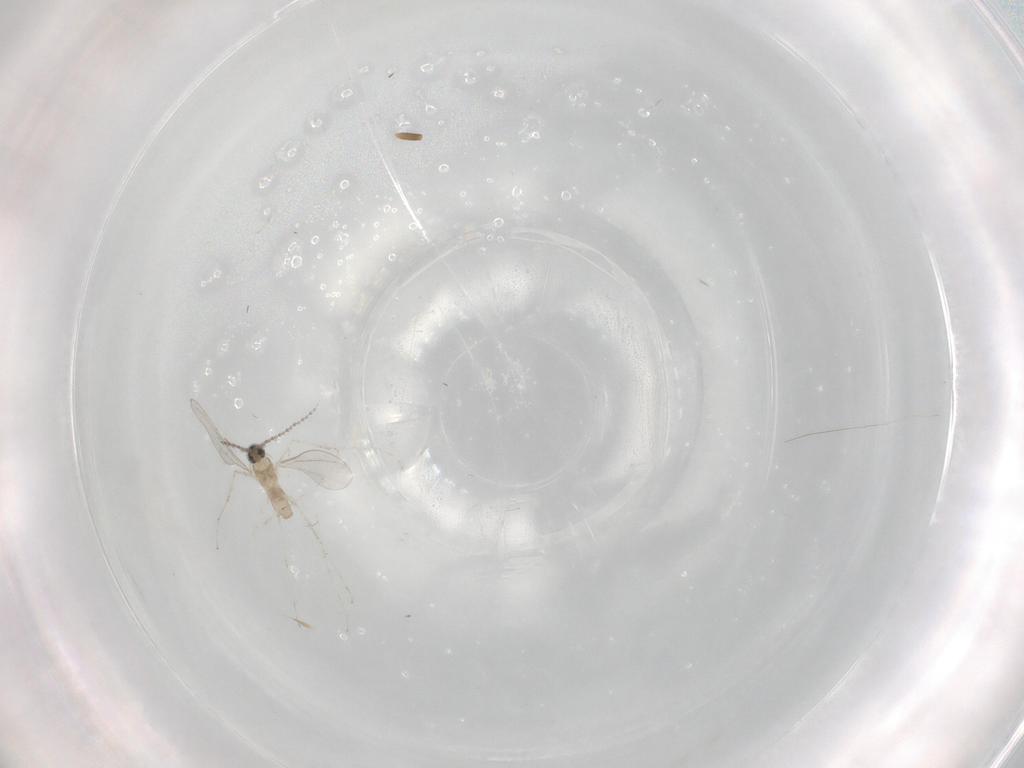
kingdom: Animalia
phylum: Arthropoda
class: Insecta
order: Diptera
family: Cecidomyiidae
